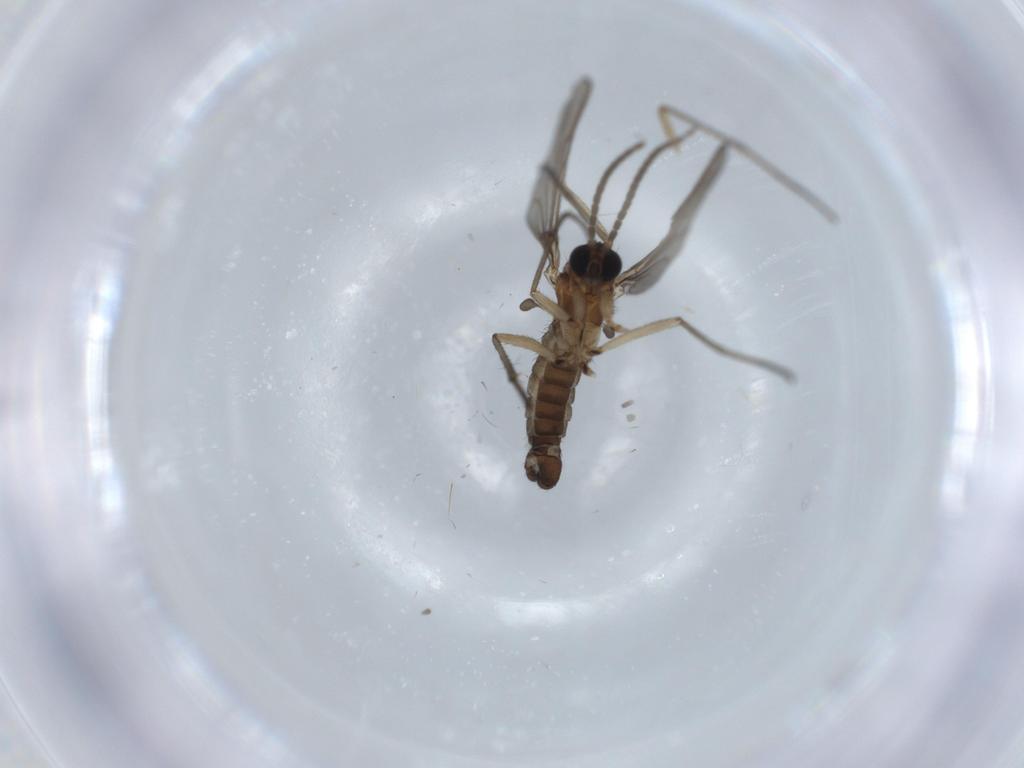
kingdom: Animalia
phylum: Arthropoda
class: Insecta
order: Diptera
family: Sciaridae
